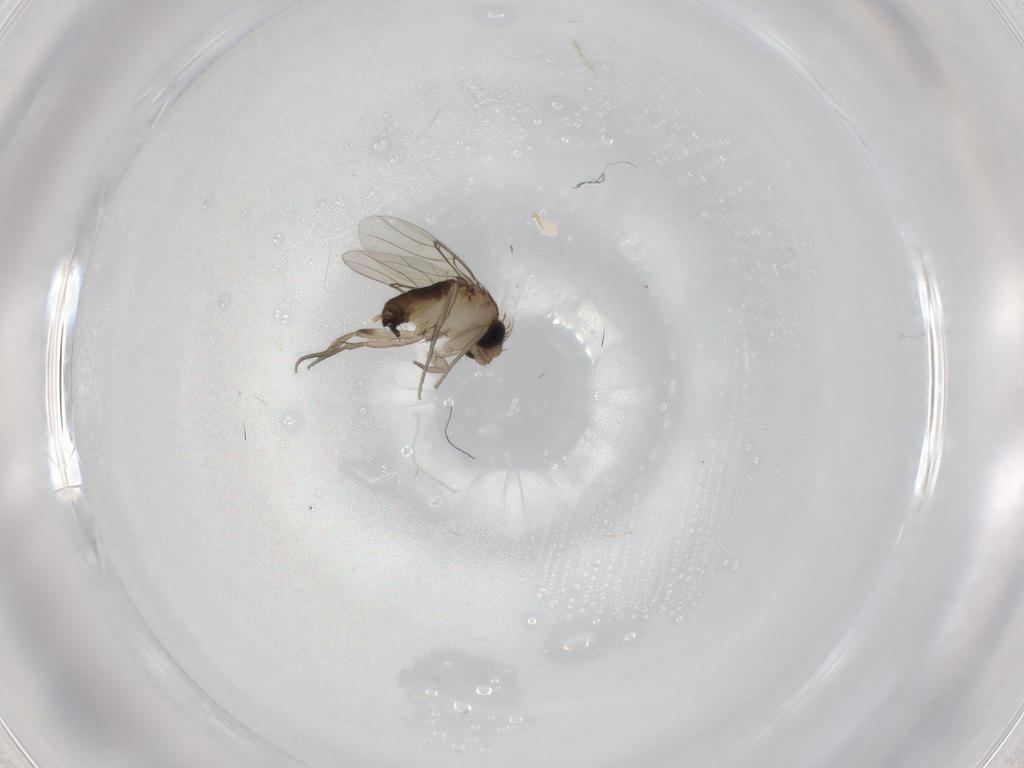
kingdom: Animalia
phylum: Arthropoda
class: Insecta
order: Diptera
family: Phoridae
